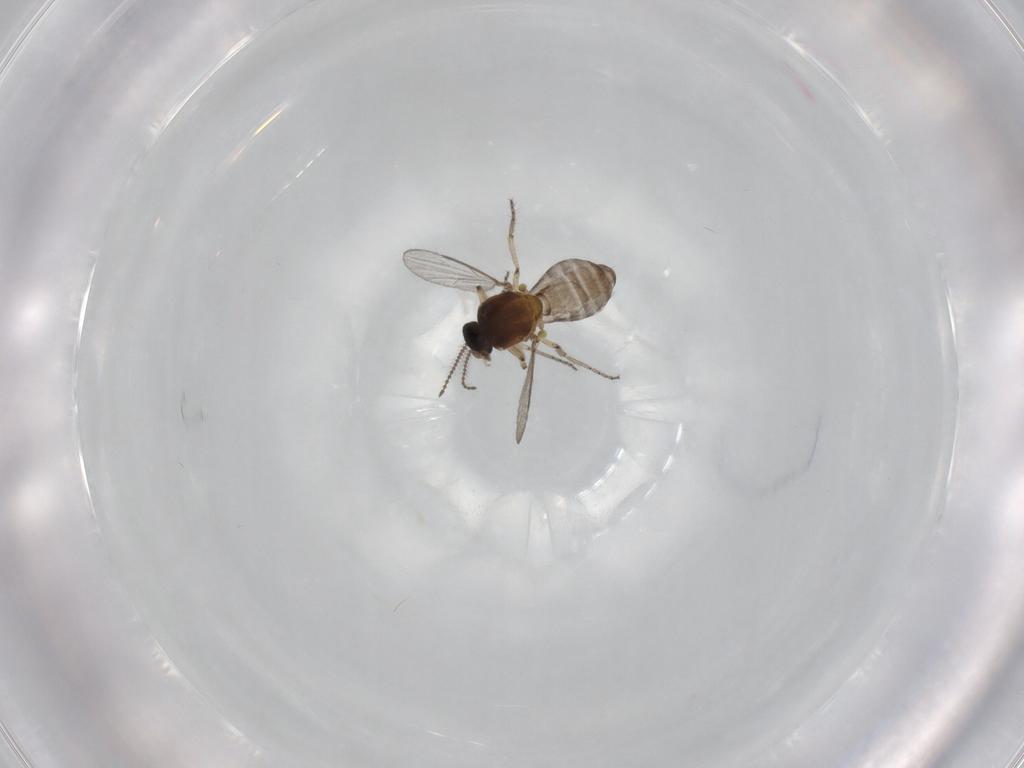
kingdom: Animalia
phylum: Arthropoda
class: Insecta
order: Diptera
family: Ceratopogonidae
